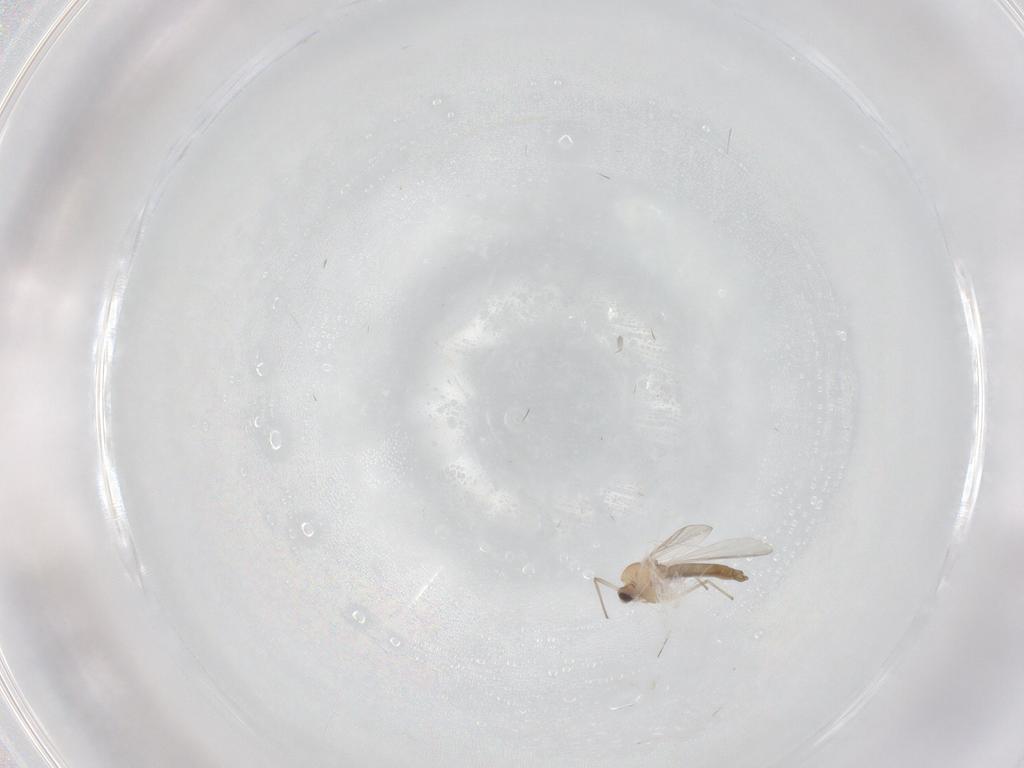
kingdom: Animalia
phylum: Arthropoda
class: Insecta
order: Diptera
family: Chironomidae
